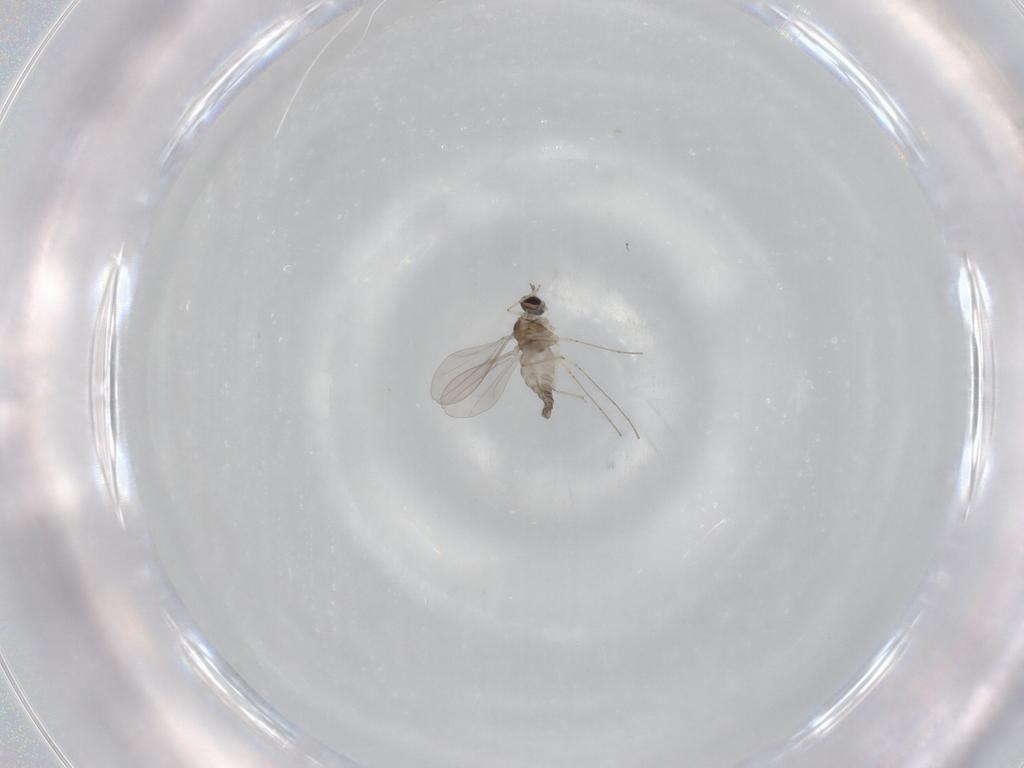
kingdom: Animalia
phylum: Arthropoda
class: Insecta
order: Diptera
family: Cecidomyiidae
